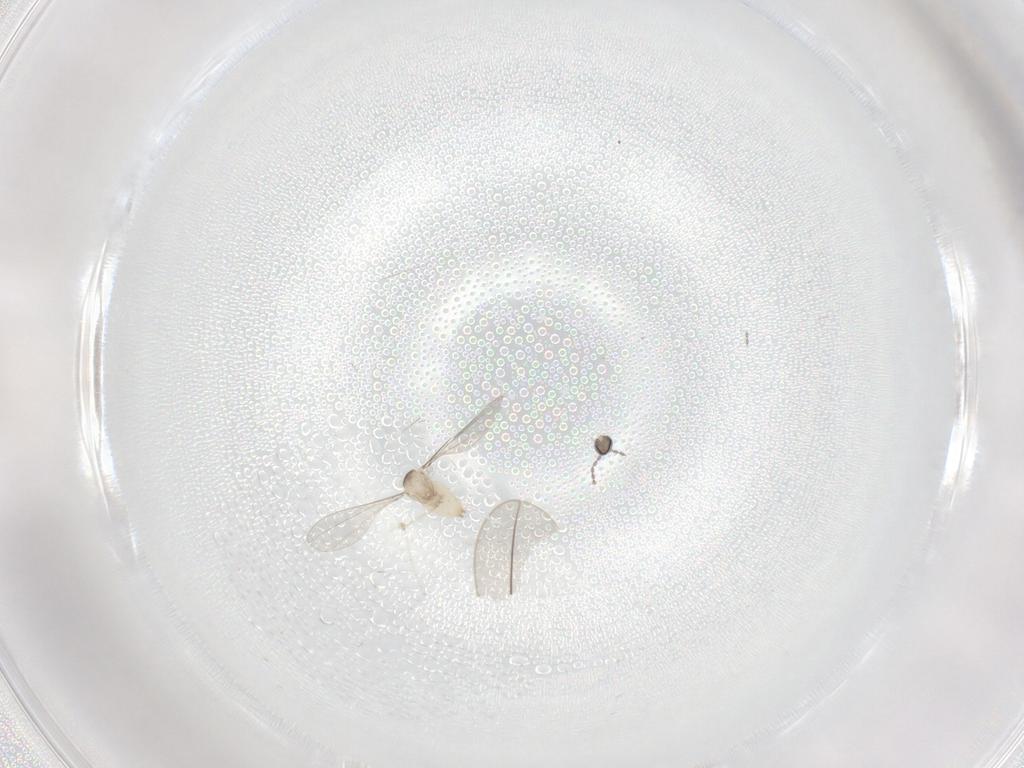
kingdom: Animalia
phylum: Arthropoda
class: Insecta
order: Diptera
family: Cecidomyiidae
